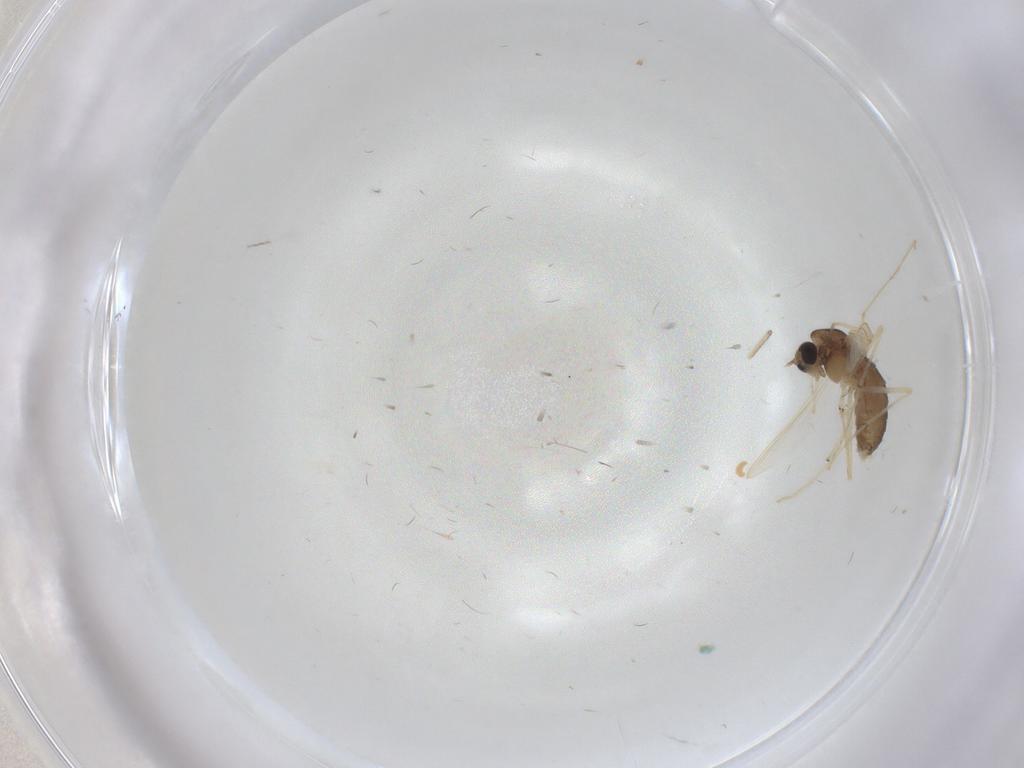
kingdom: Animalia
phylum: Arthropoda
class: Insecta
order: Diptera
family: Chironomidae
